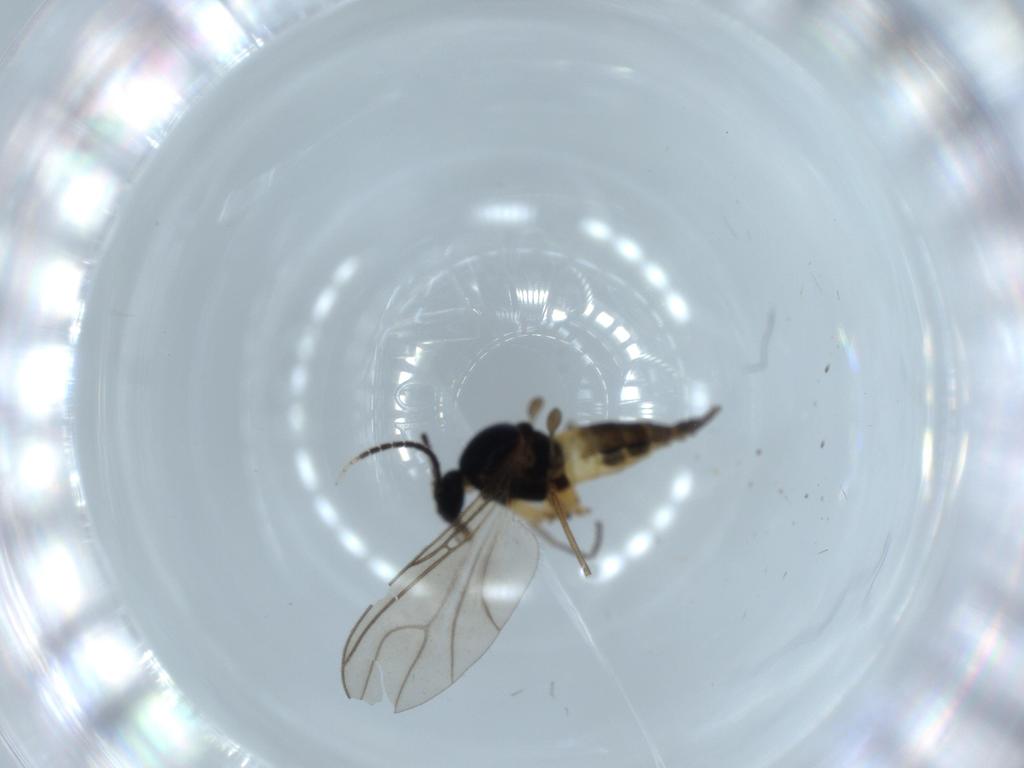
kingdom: Animalia
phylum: Arthropoda
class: Insecta
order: Diptera
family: Sciaridae
